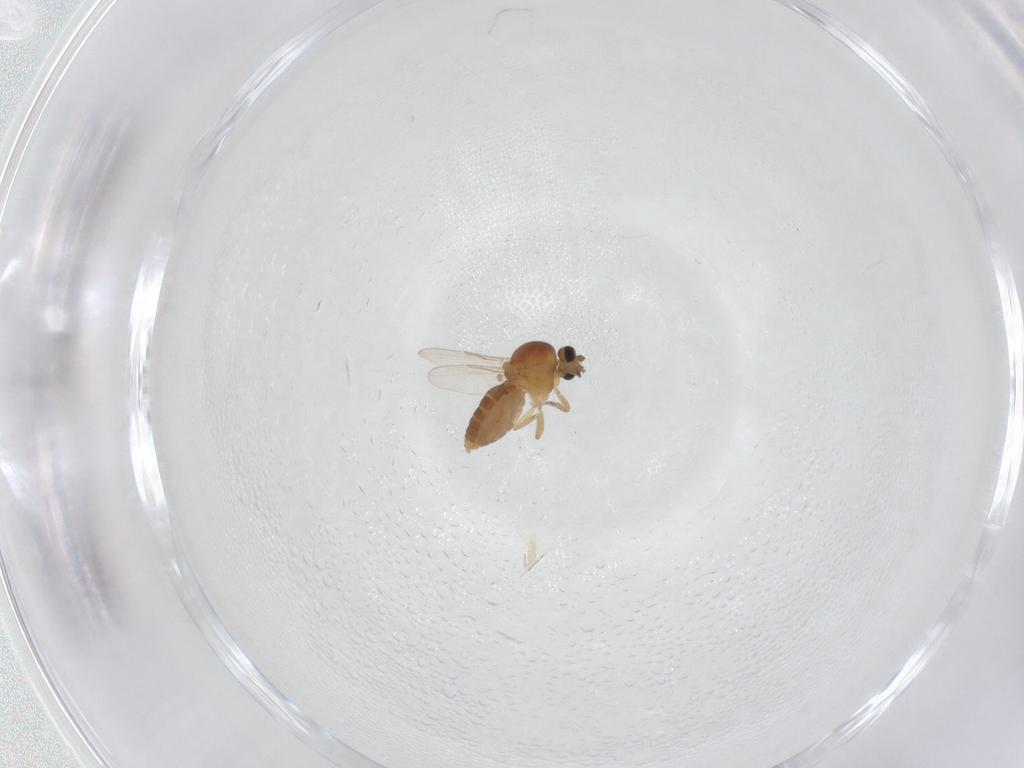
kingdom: Animalia
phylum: Arthropoda
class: Insecta
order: Diptera
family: Ceratopogonidae
